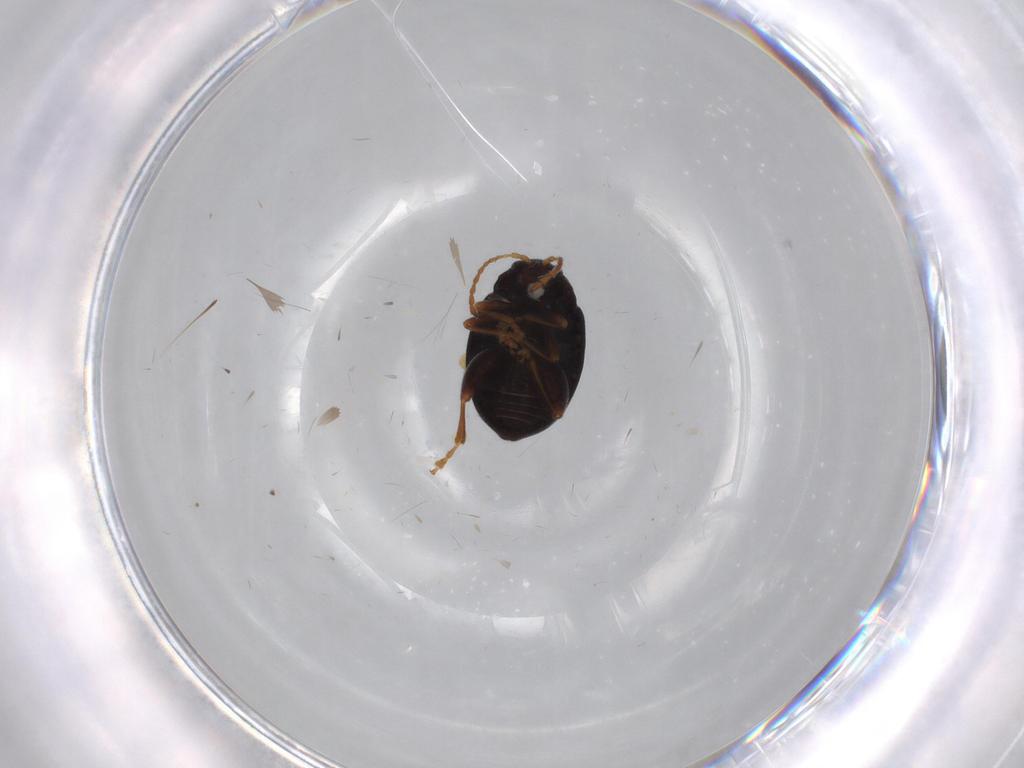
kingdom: Animalia
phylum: Arthropoda
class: Insecta
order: Coleoptera
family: Chrysomelidae
